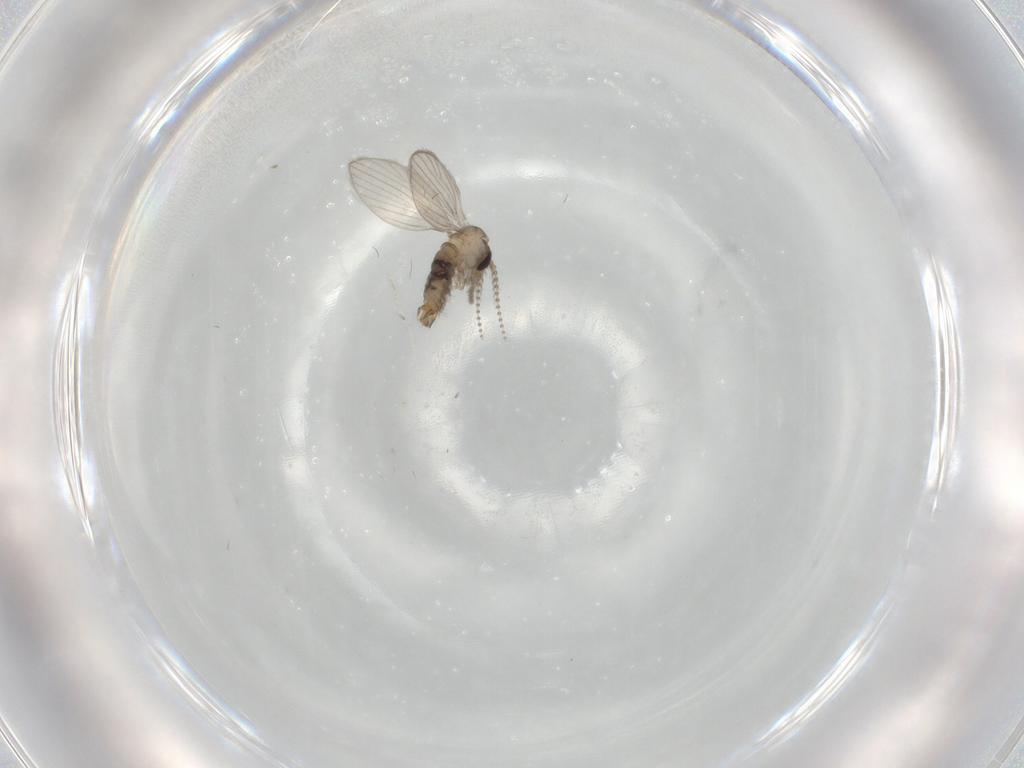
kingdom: Animalia
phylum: Arthropoda
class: Insecta
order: Diptera
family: Psychodidae
